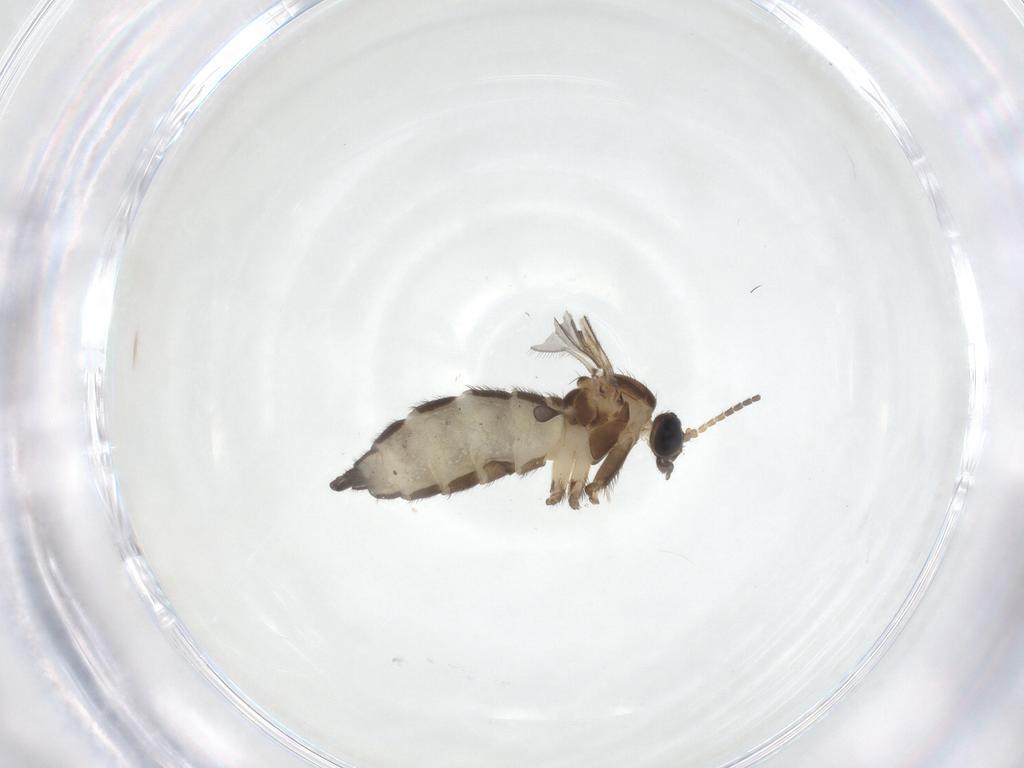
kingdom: Animalia
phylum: Arthropoda
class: Insecta
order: Diptera
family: Sciaridae
